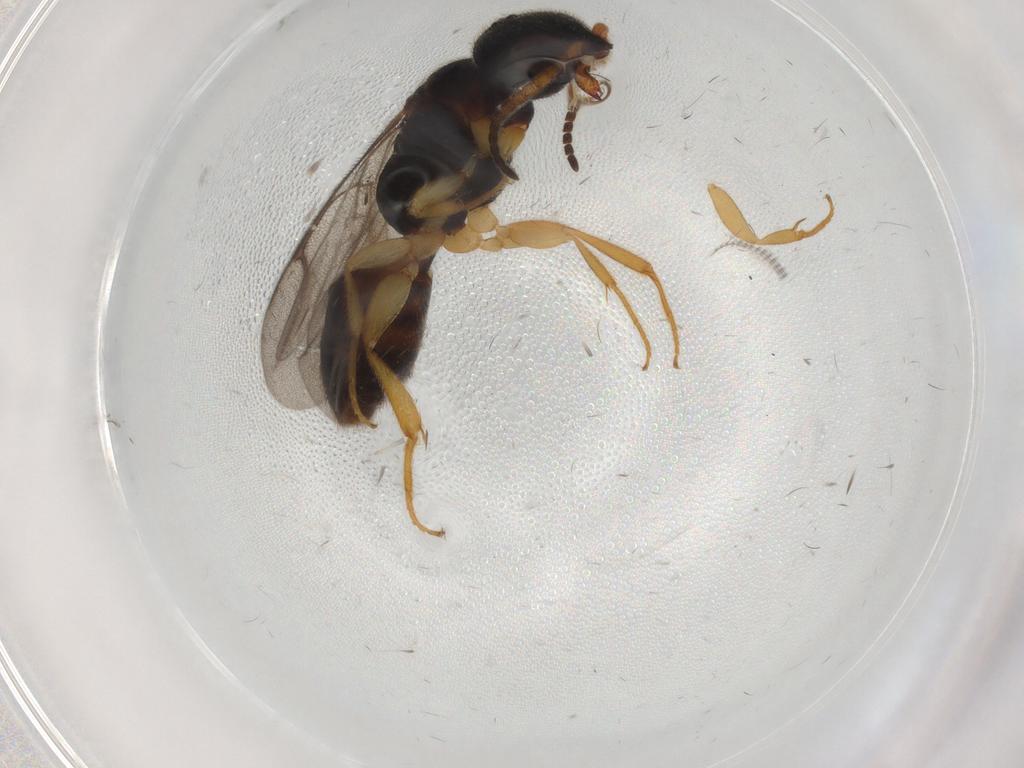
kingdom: Animalia
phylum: Arthropoda
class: Insecta
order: Hymenoptera
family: Bethylidae
